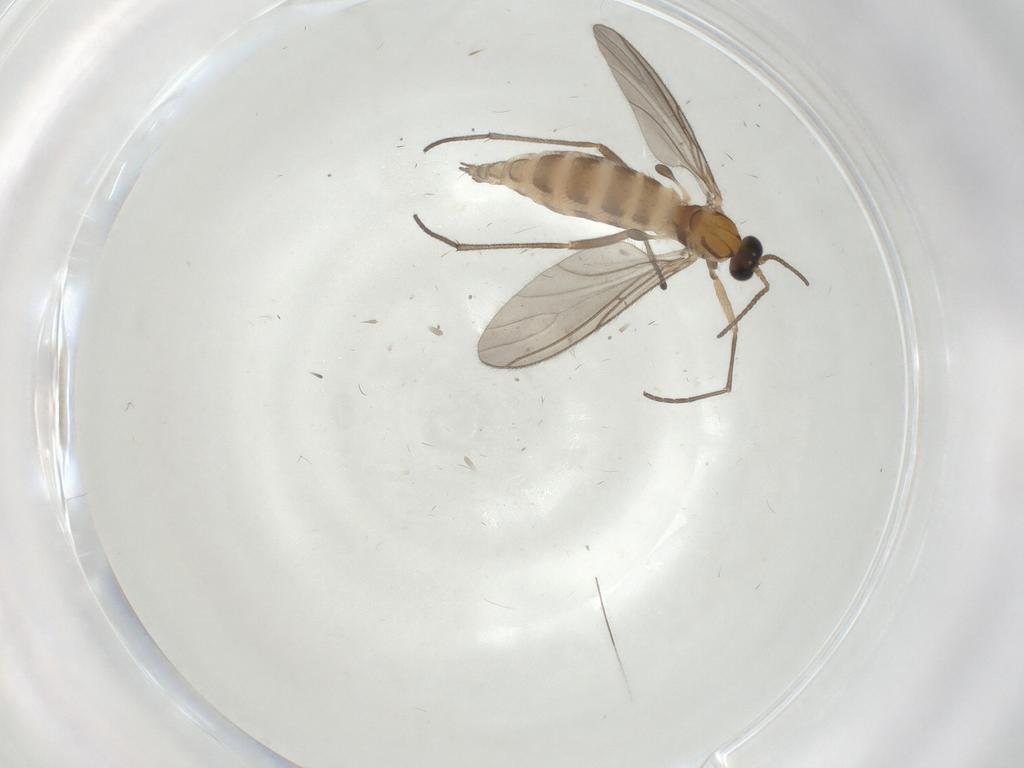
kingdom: Animalia
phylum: Arthropoda
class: Insecta
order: Diptera
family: Sciaridae
